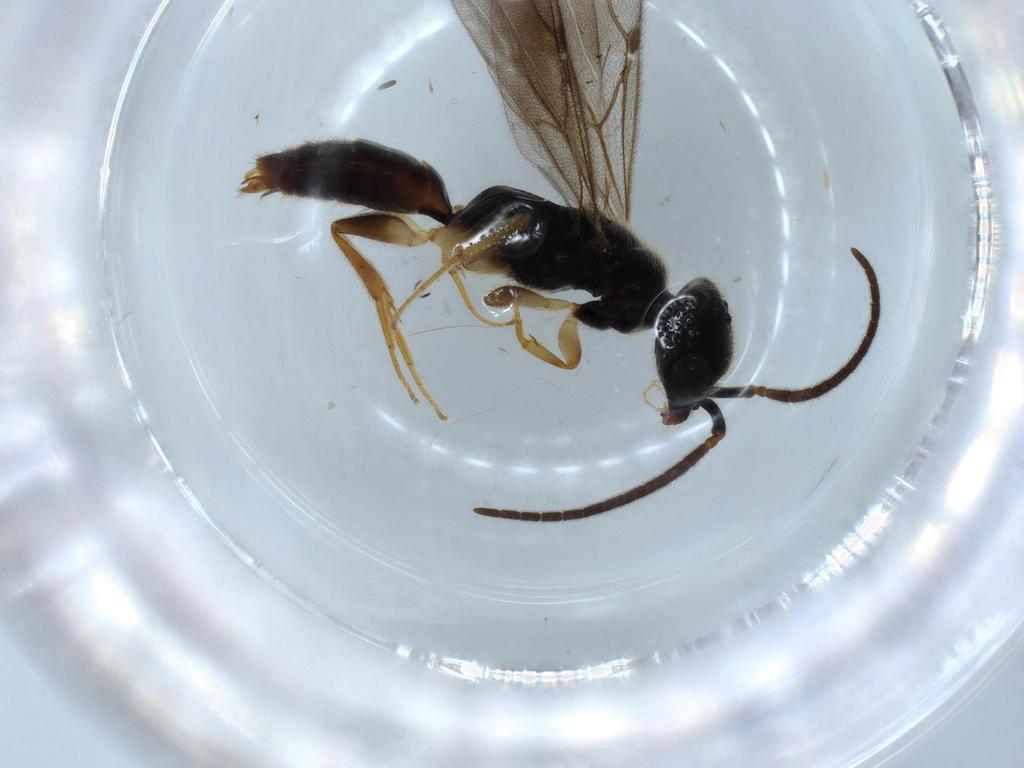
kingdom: Animalia
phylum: Arthropoda
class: Insecta
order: Hymenoptera
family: Bethylidae
